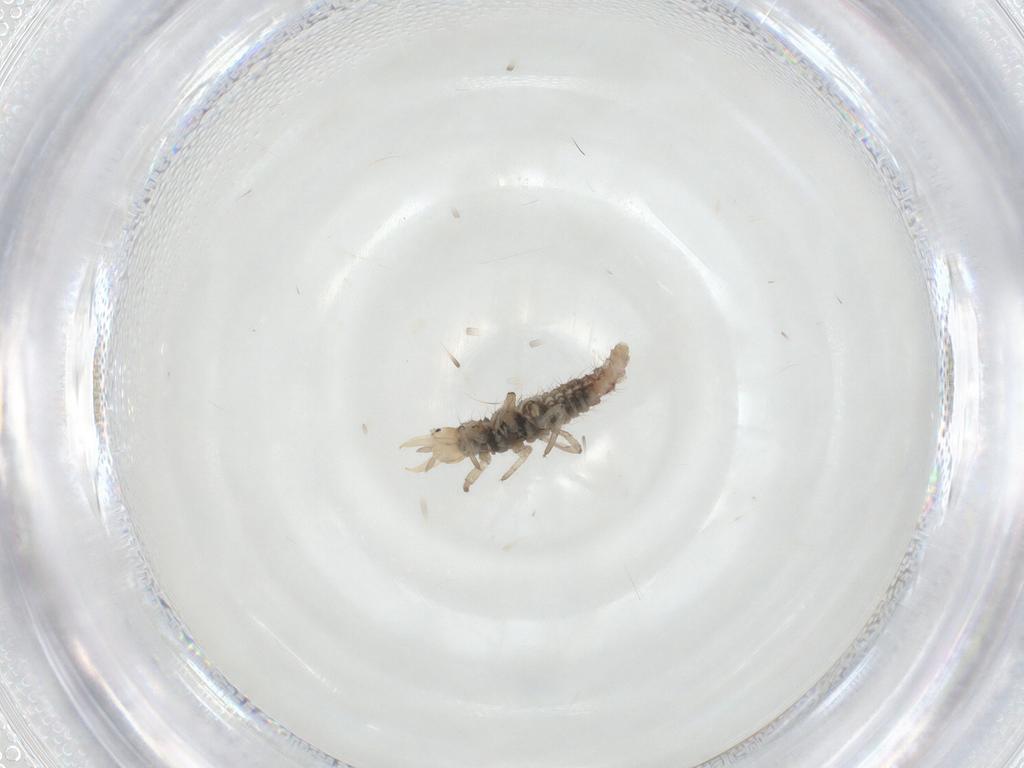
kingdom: Animalia
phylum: Arthropoda
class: Insecta
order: Neuroptera
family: Hemerobiidae
